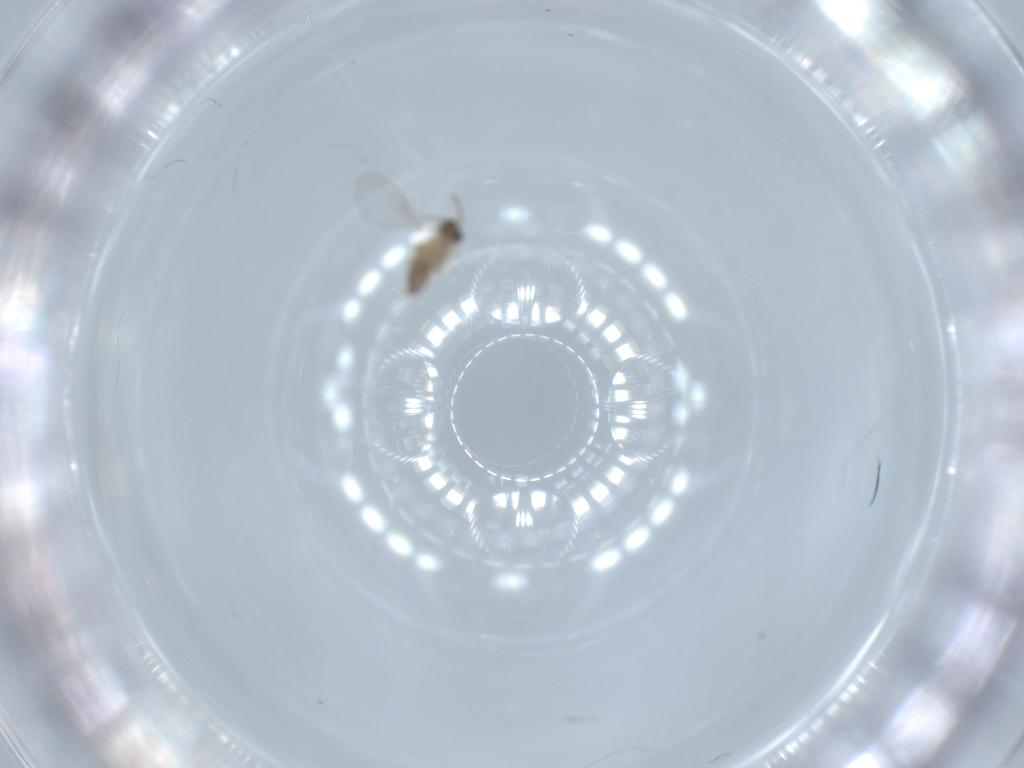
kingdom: Animalia
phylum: Arthropoda
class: Insecta
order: Diptera
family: Cecidomyiidae
